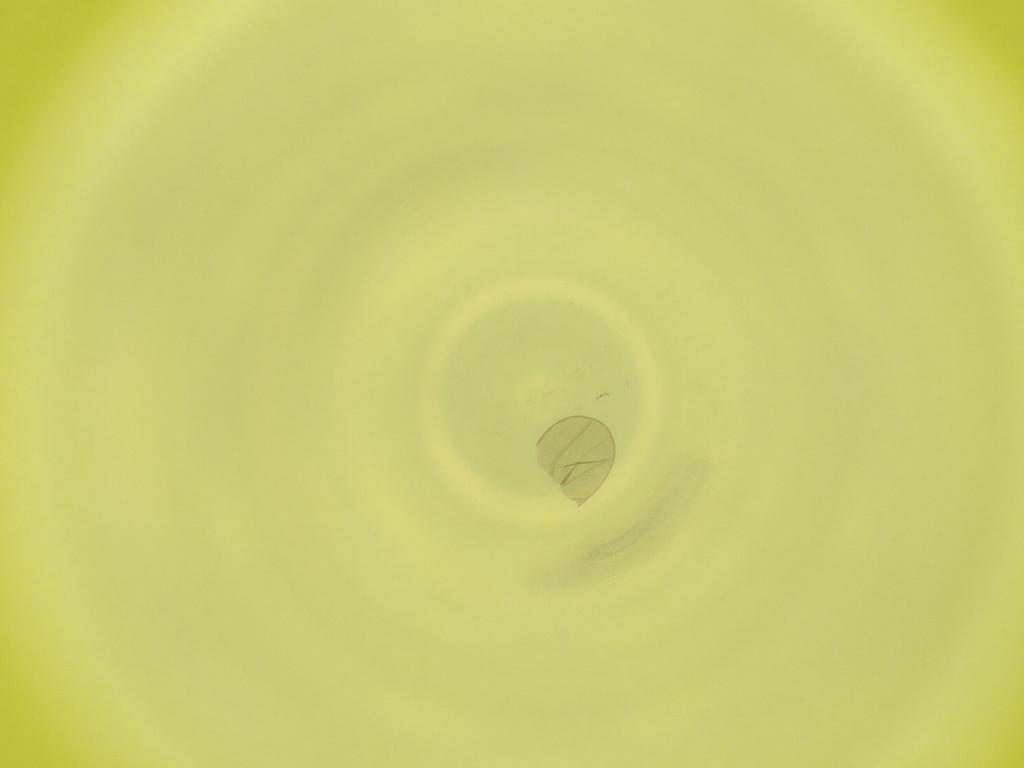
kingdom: Animalia
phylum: Arthropoda
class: Insecta
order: Diptera
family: Cecidomyiidae
